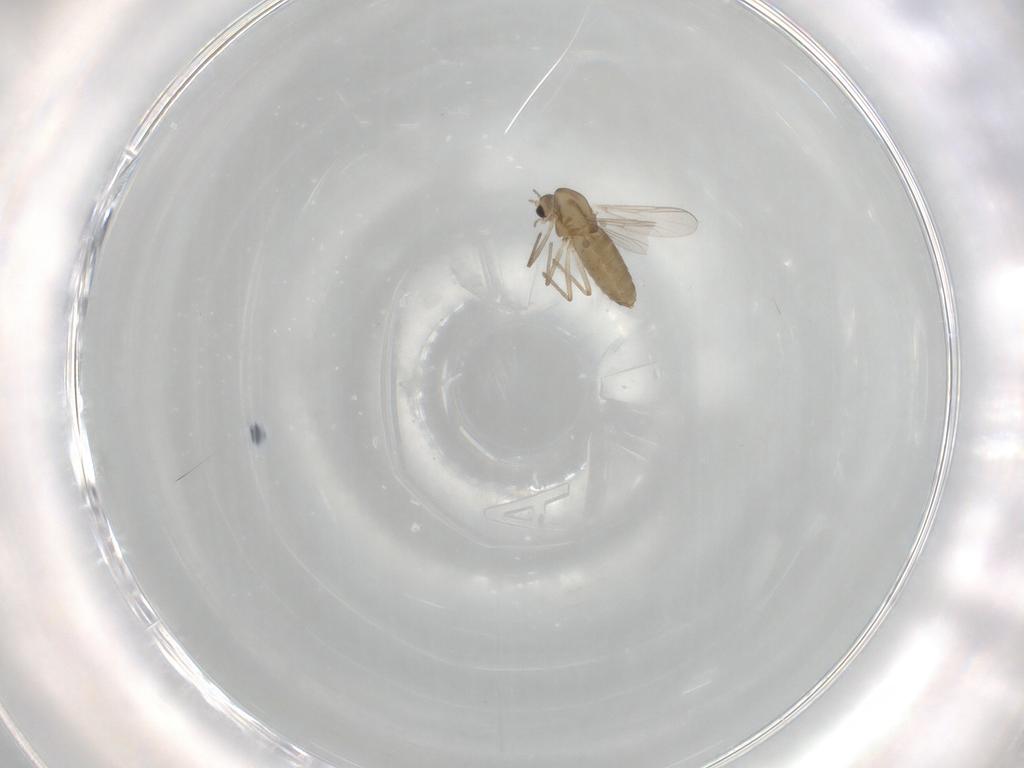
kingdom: Animalia
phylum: Arthropoda
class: Insecta
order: Diptera
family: Chironomidae
